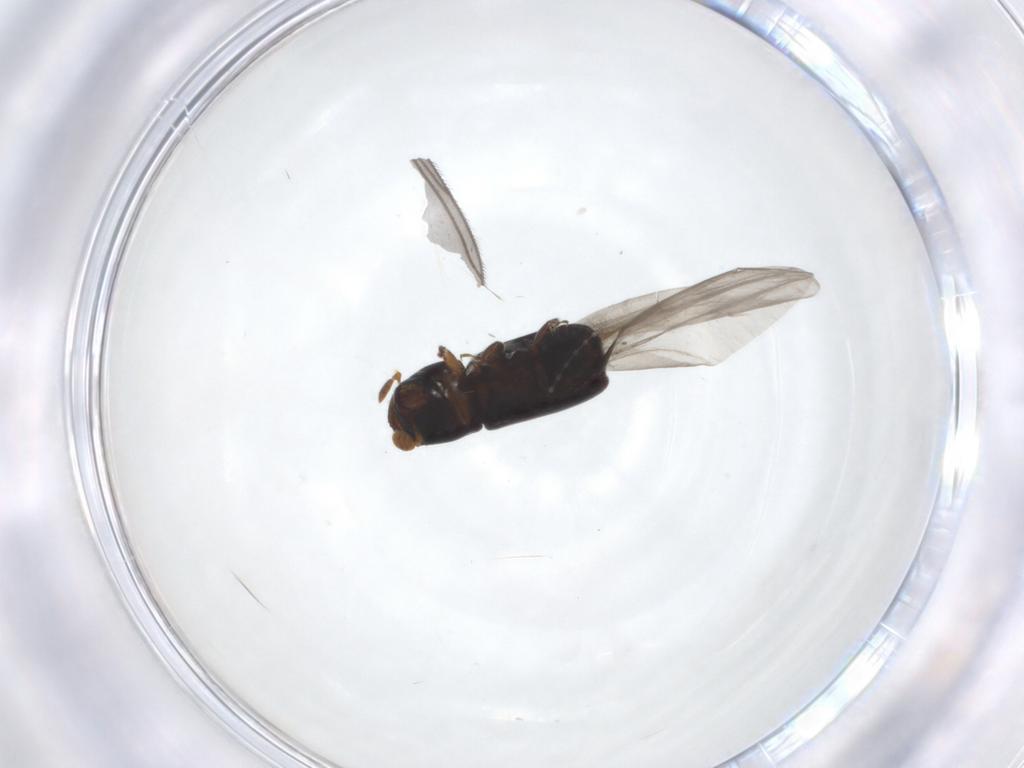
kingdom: Animalia
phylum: Arthropoda
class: Insecta
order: Coleoptera
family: Curculionidae
